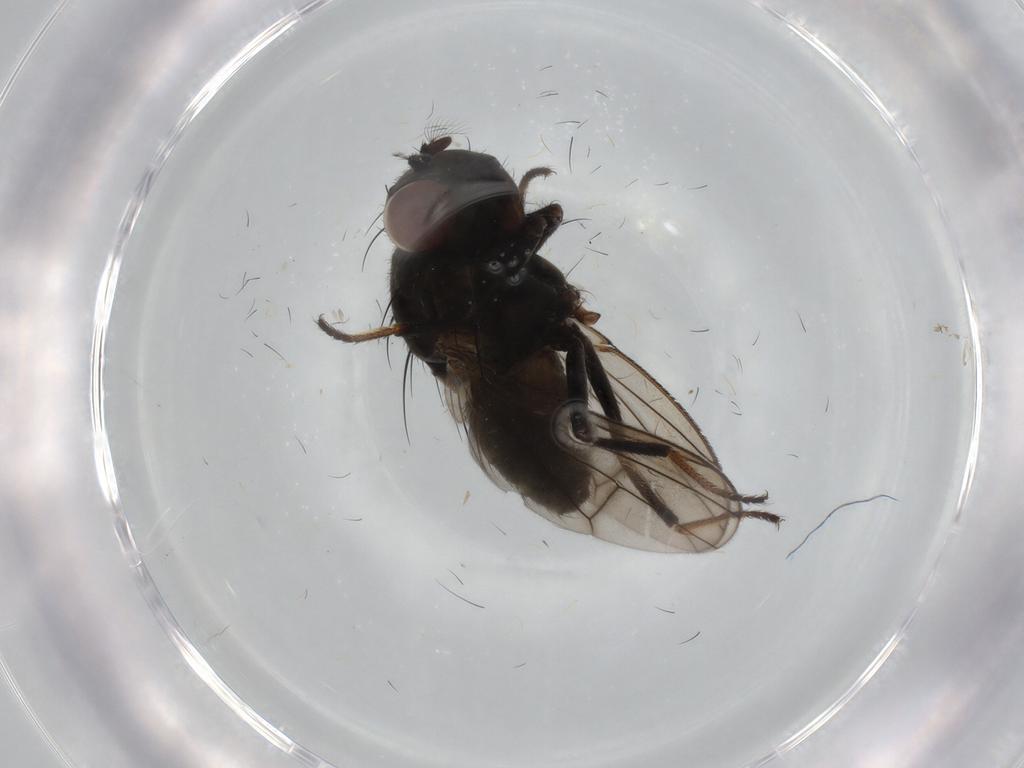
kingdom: Animalia
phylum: Arthropoda
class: Insecta
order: Diptera
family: Ephydridae
